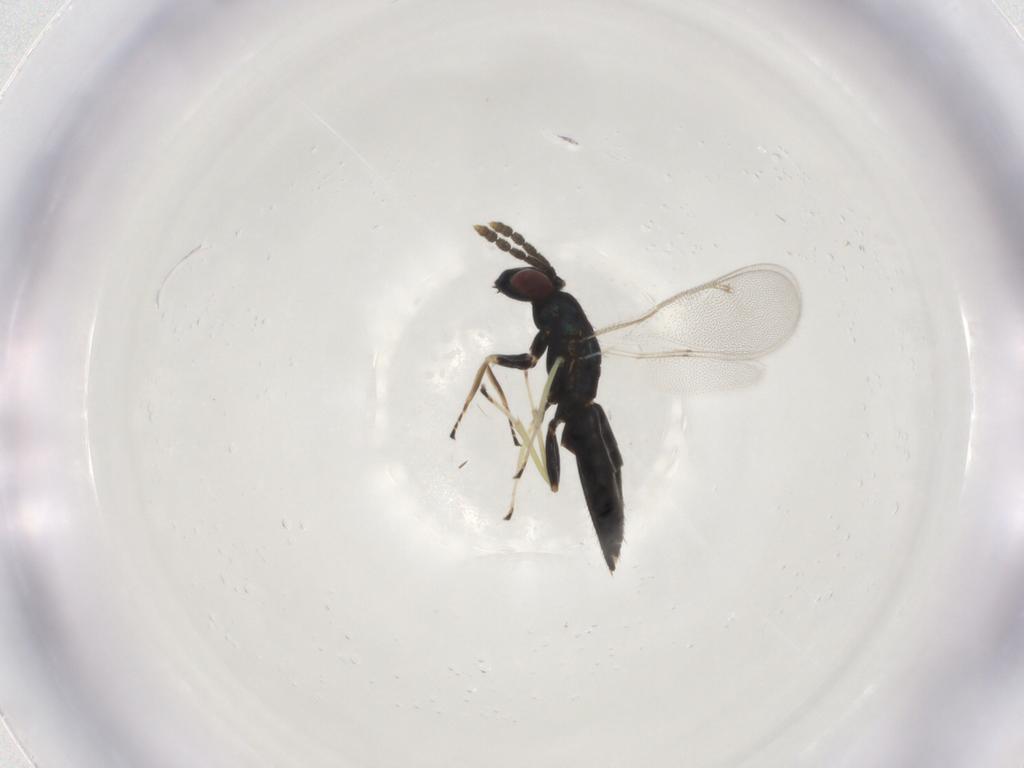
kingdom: Animalia
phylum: Arthropoda
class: Insecta
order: Hymenoptera
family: Eulophidae
